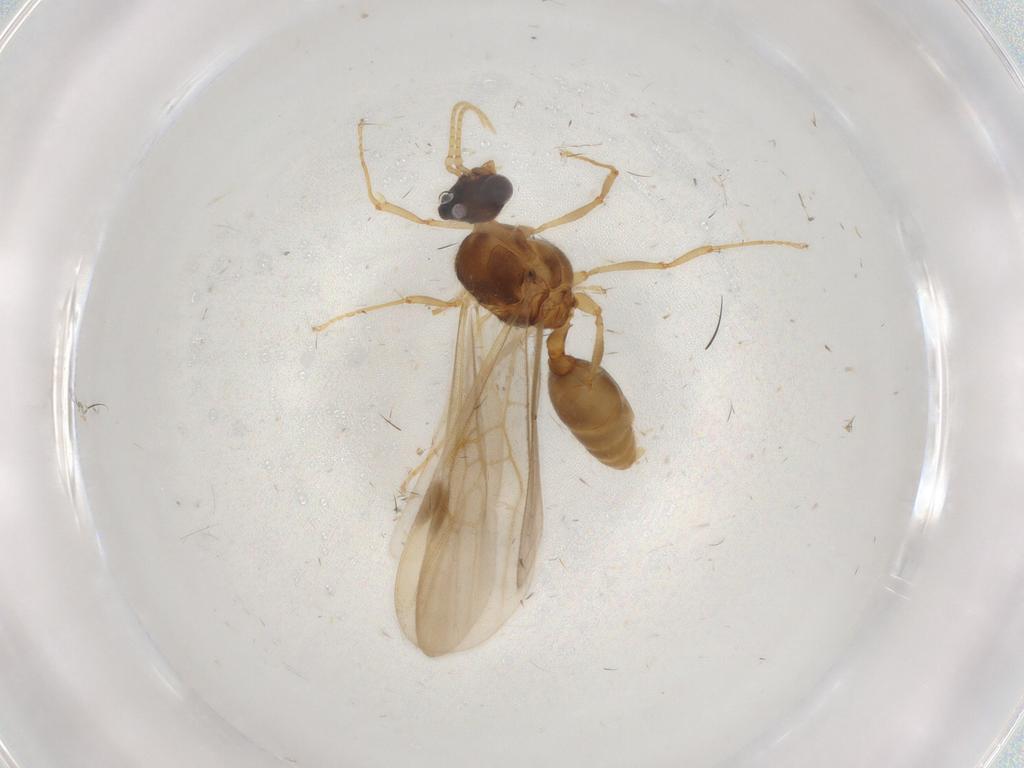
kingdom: Animalia
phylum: Arthropoda
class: Insecta
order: Hymenoptera
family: Formicidae
